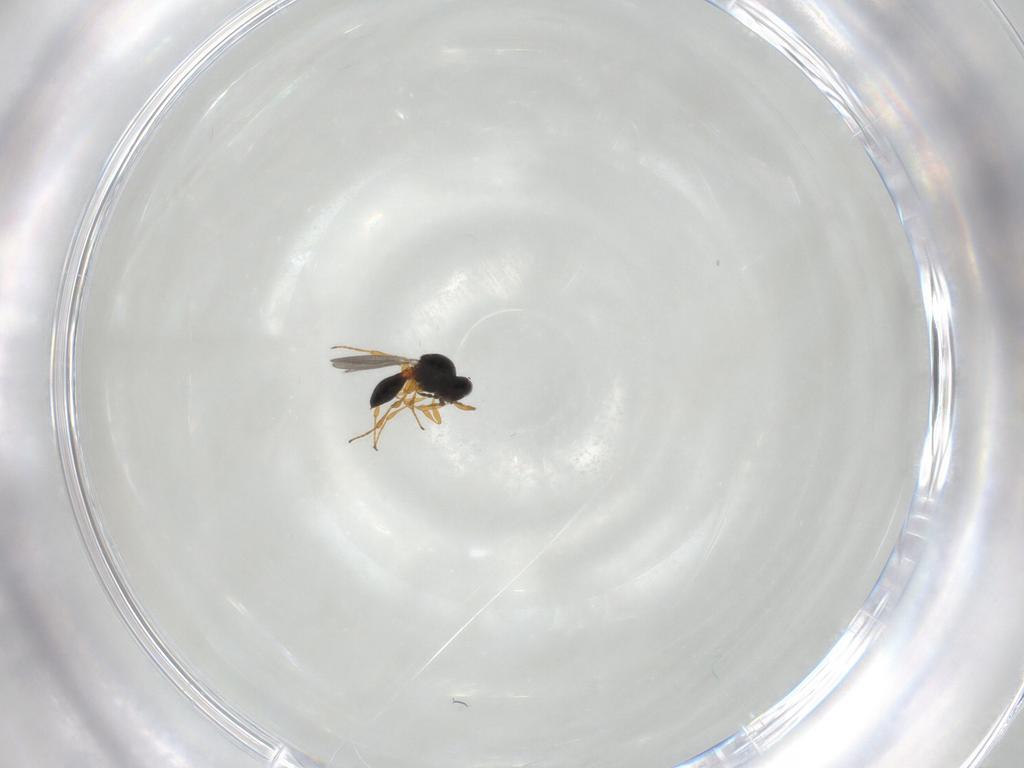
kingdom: Animalia
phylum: Arthropoda
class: Insecta
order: Hymenoptera
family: Platygastridae
